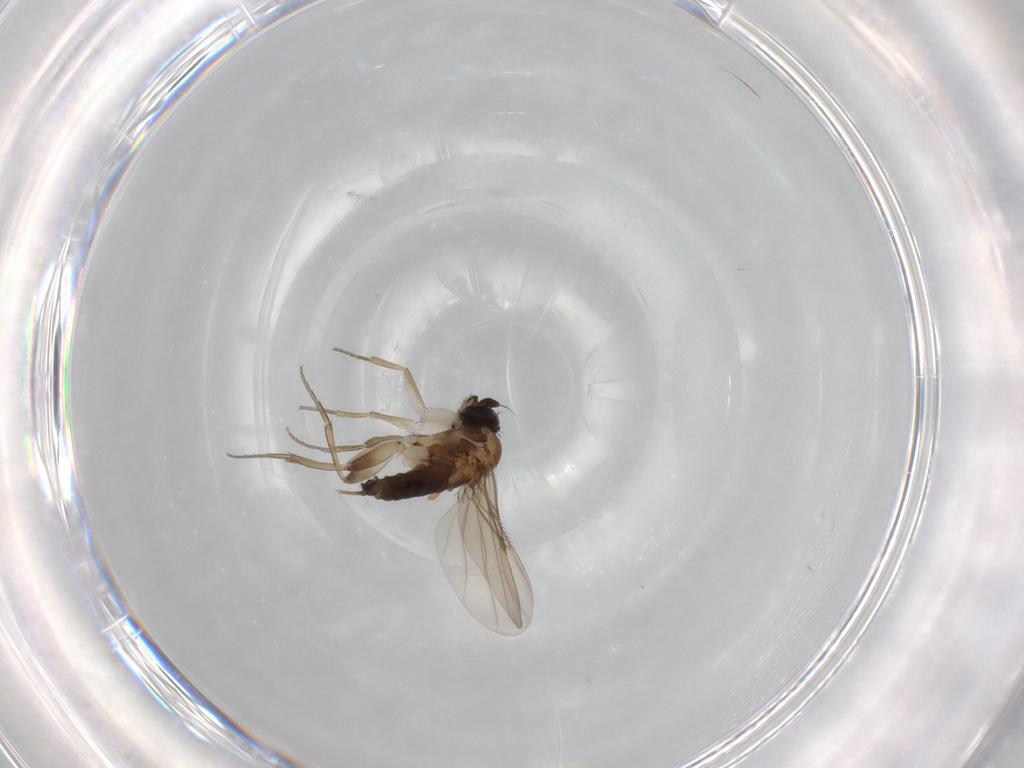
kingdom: Animalia
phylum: Arthropoda
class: Insecta
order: Diptera
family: Phoridae
